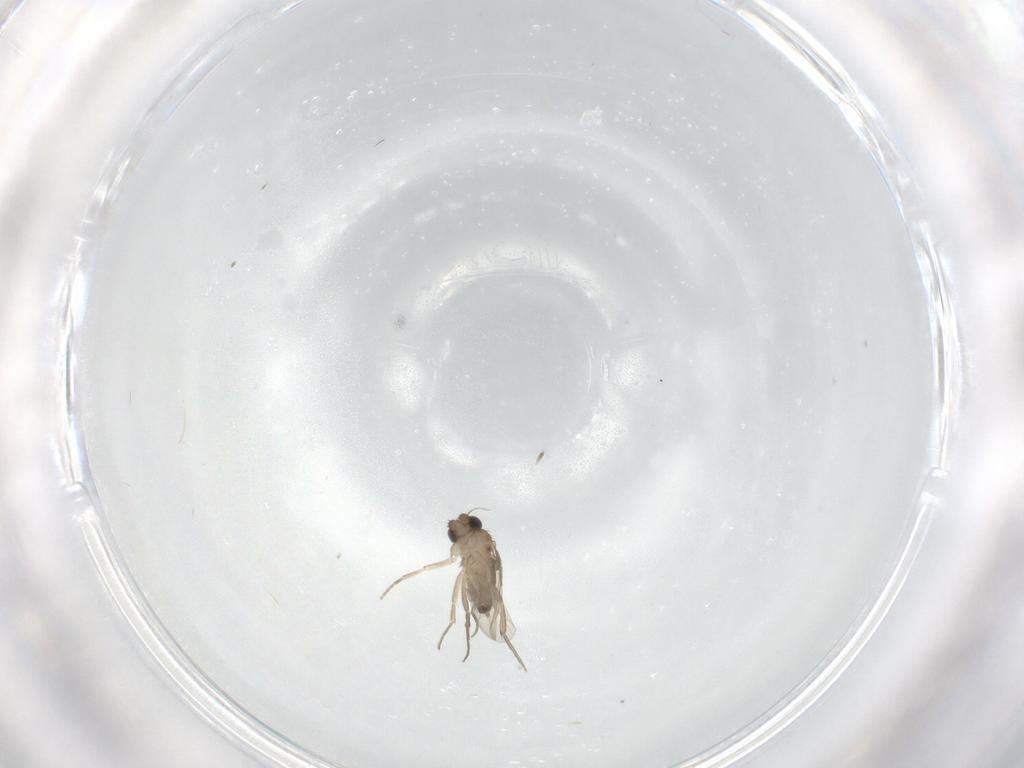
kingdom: Animalia
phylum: Arthropoda
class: Insecta
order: Diptera
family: Phoridae
